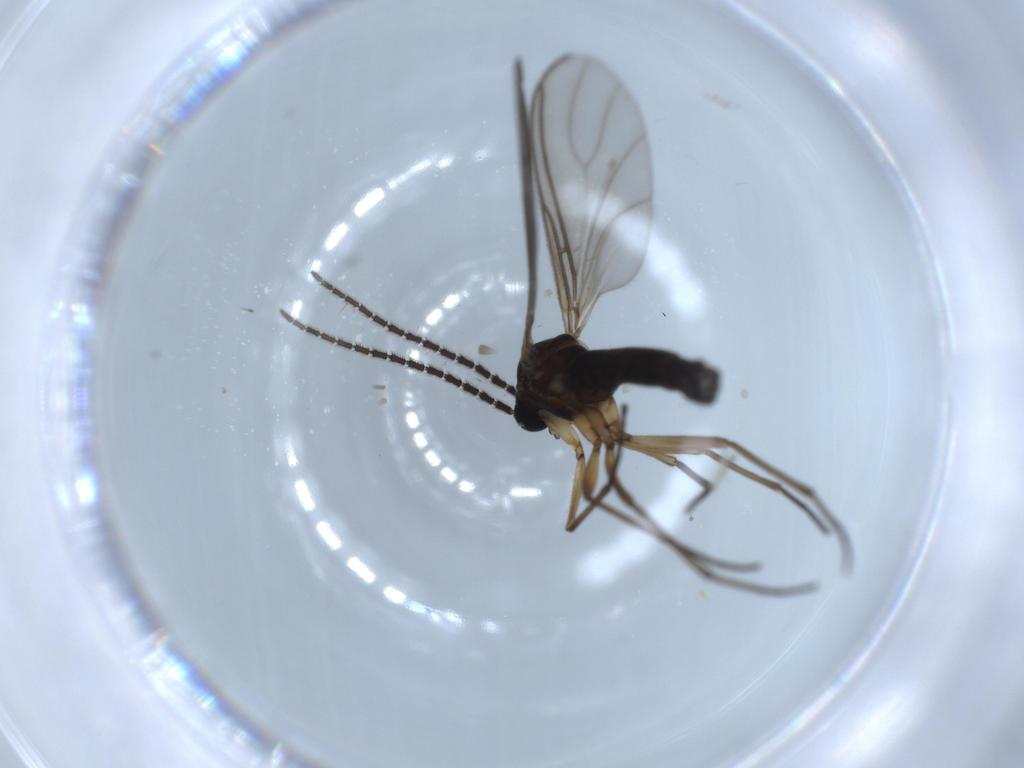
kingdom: Animalia
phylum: Arthropoda
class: Insecta
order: Diptera
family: Sciaridae
